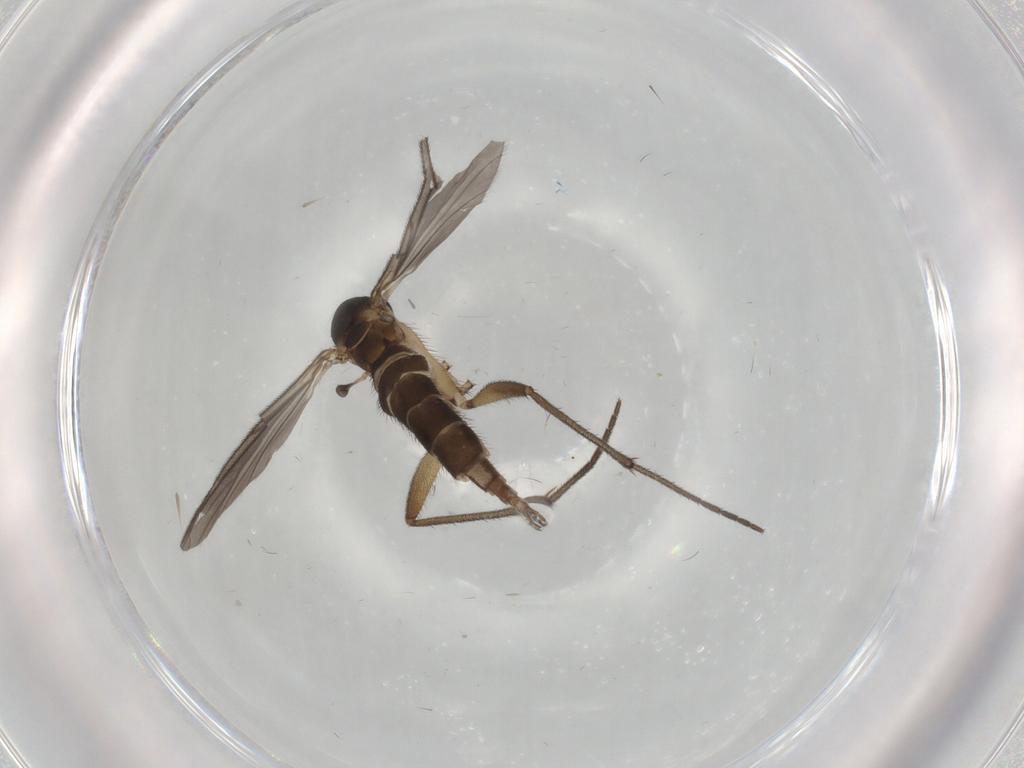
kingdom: Animalia
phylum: Arthropoda
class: Insecta
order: Diptera
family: Sciaridae
